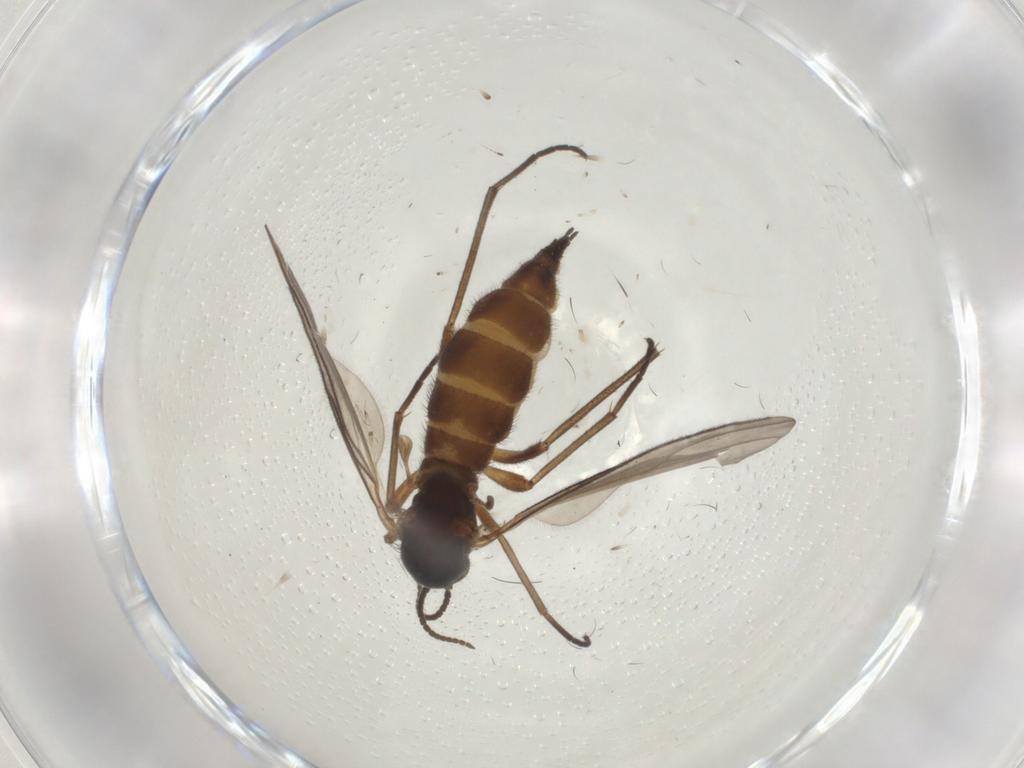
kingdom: Animalia
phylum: Arthropoda
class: Insecta
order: Diptera
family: Sciaridae
